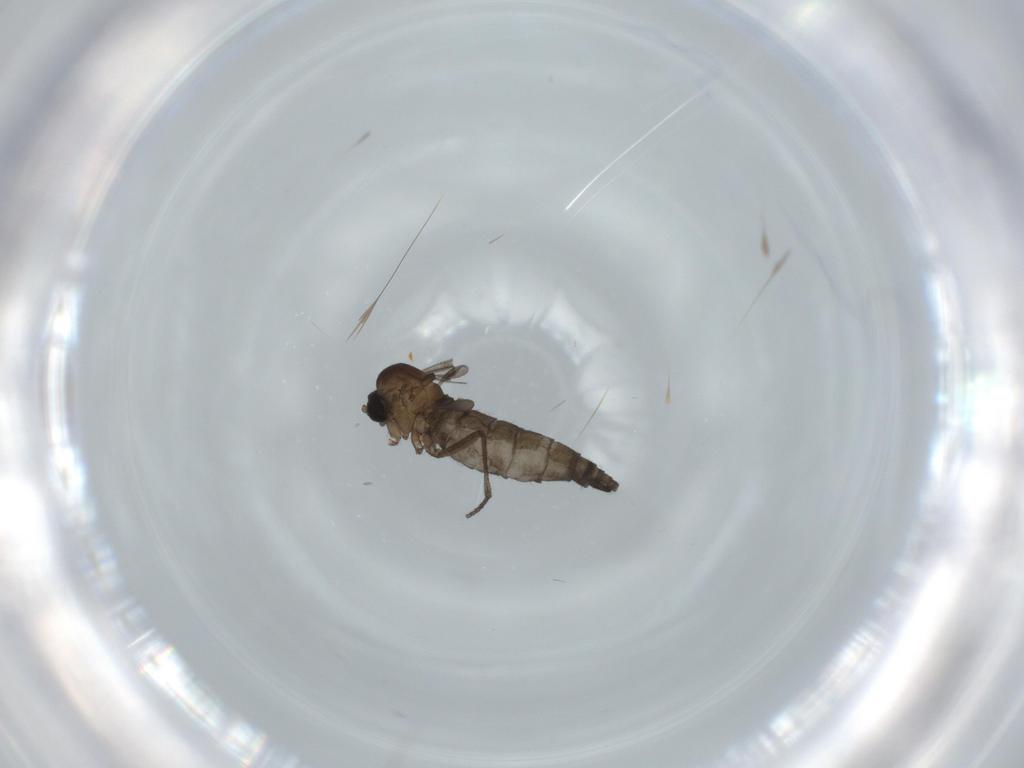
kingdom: Animalia
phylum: Arthropoda
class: Insecta
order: Diptera
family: Sciaridae
